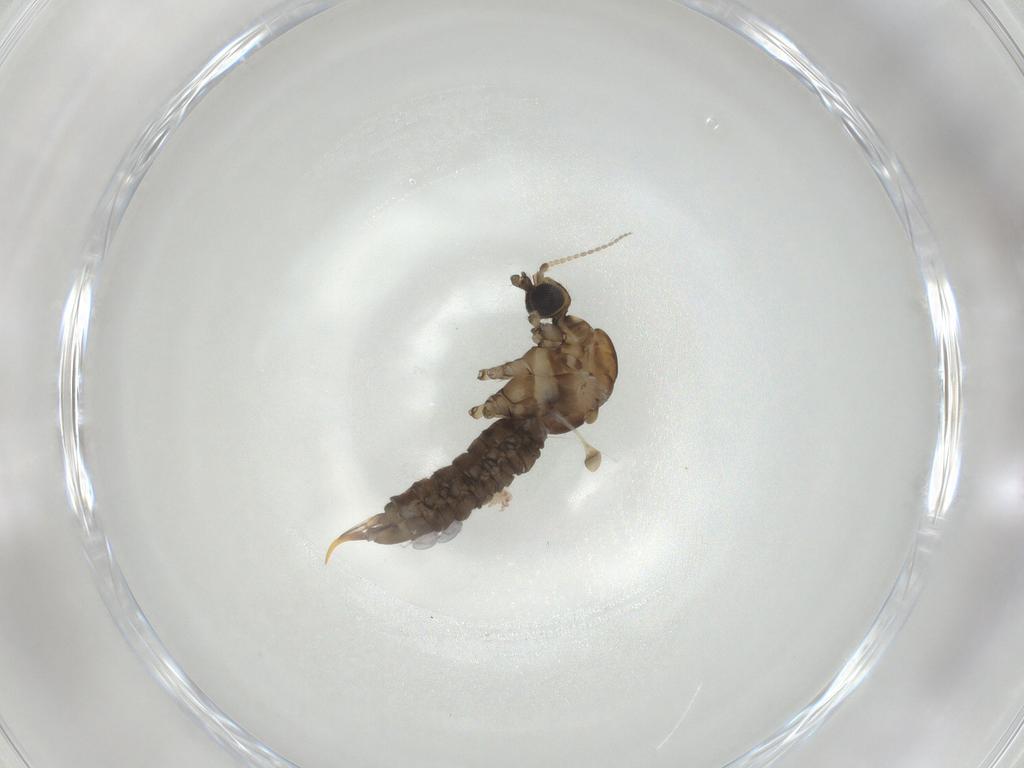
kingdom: Animalia
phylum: Arthropoda
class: Insecta
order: Diptera
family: Limoniidae
